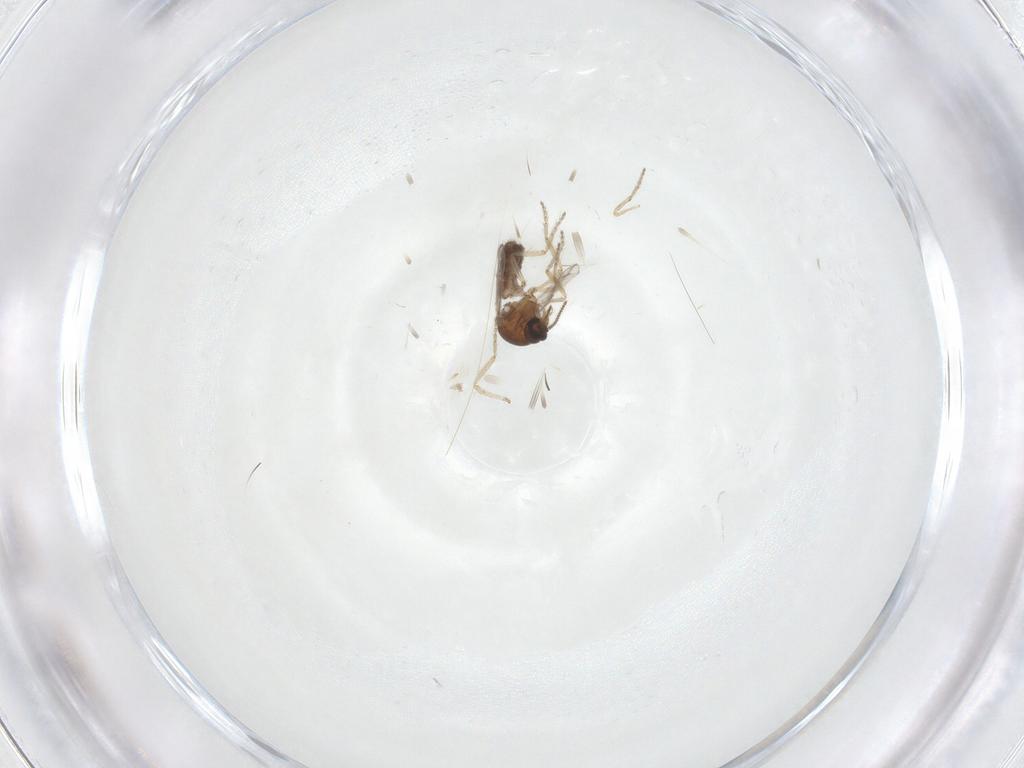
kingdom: Animalia
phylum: Arthropoda
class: Insecta
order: Diptera
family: Ceratopogonidae
